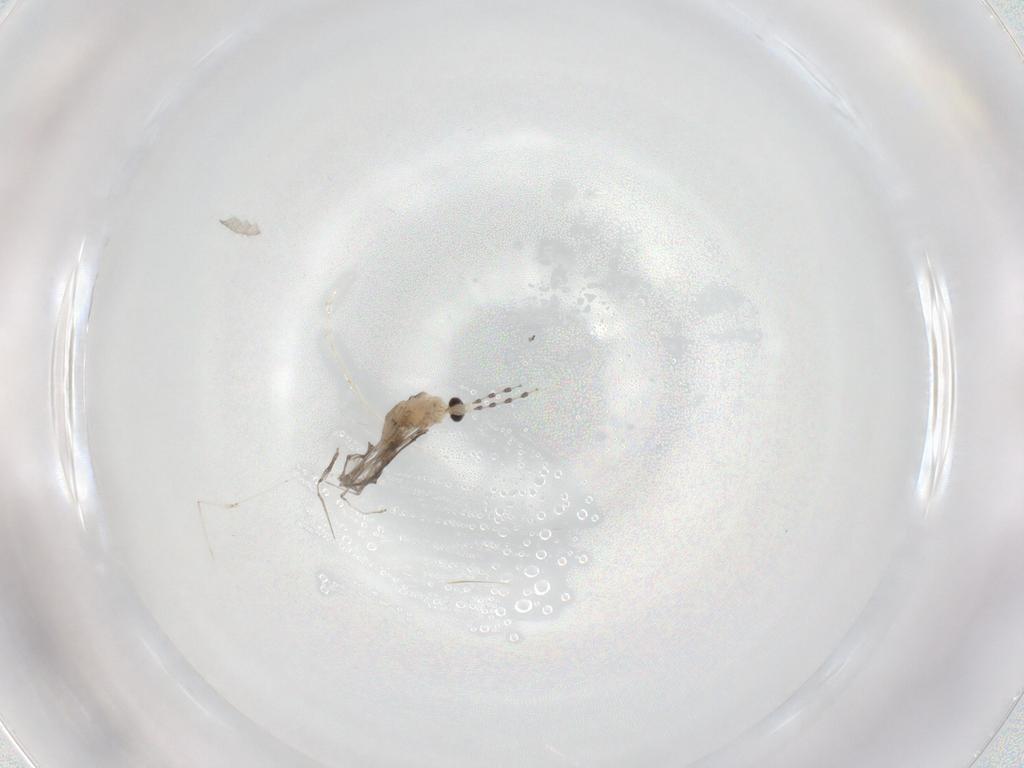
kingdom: Animalia
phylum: Arthropoda
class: Insecta
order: Diptera
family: Cecidomyiidae
